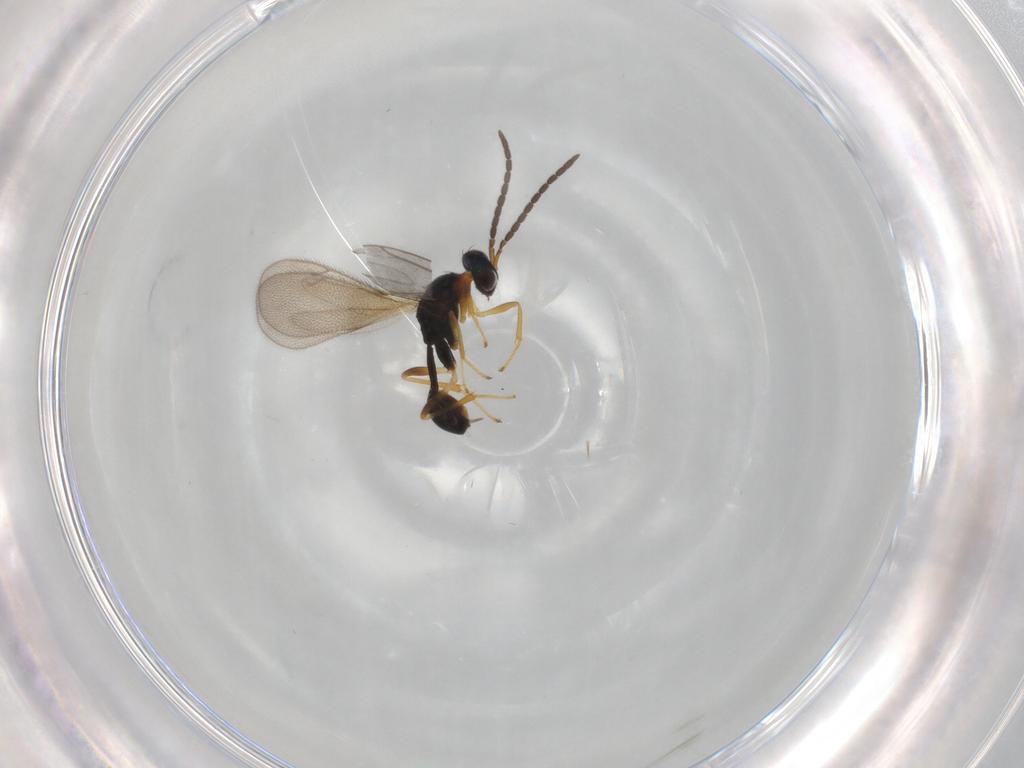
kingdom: Animalia
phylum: Arthropoda
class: Insecta
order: Hymenoptera
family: Diparidae
